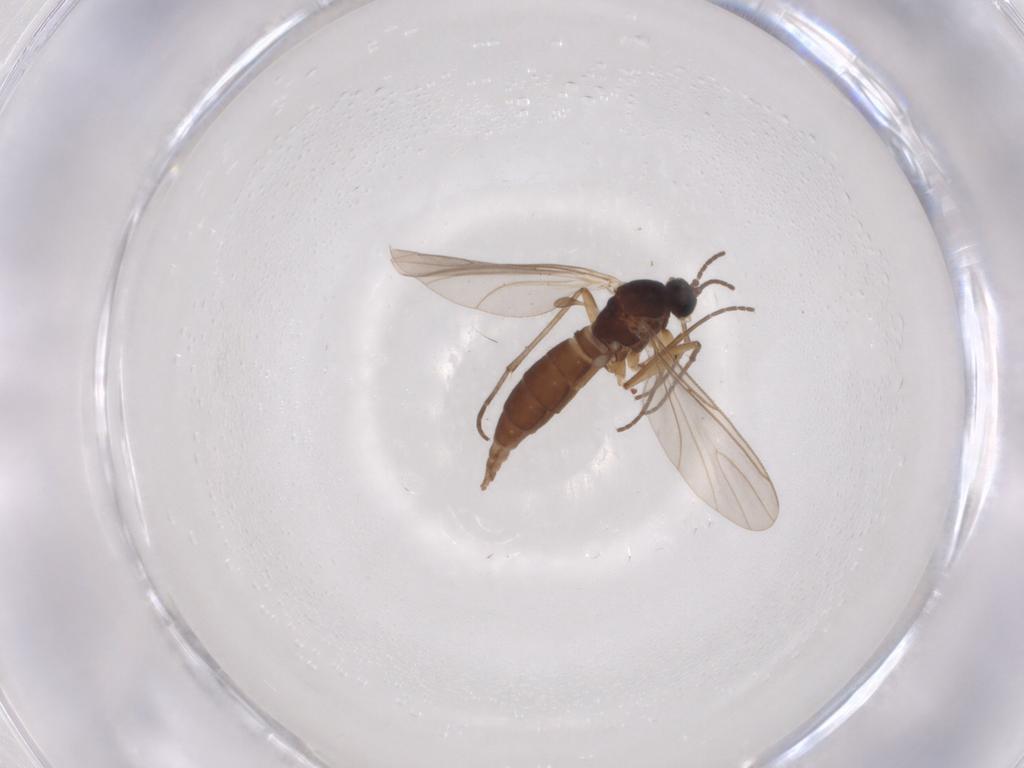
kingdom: Animalia
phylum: Arthropoda
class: Insecta
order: Diptera
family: Sciaridae
